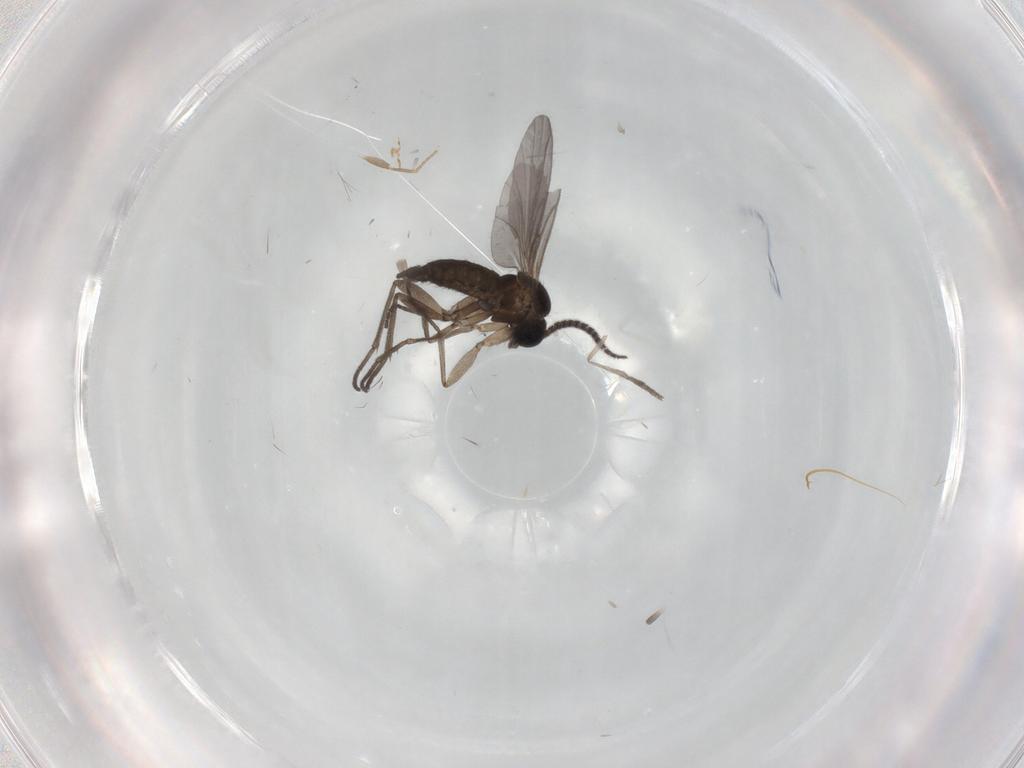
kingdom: Animalia
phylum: Arthropoda
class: Insecta
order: Diptera
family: Sciaridae
